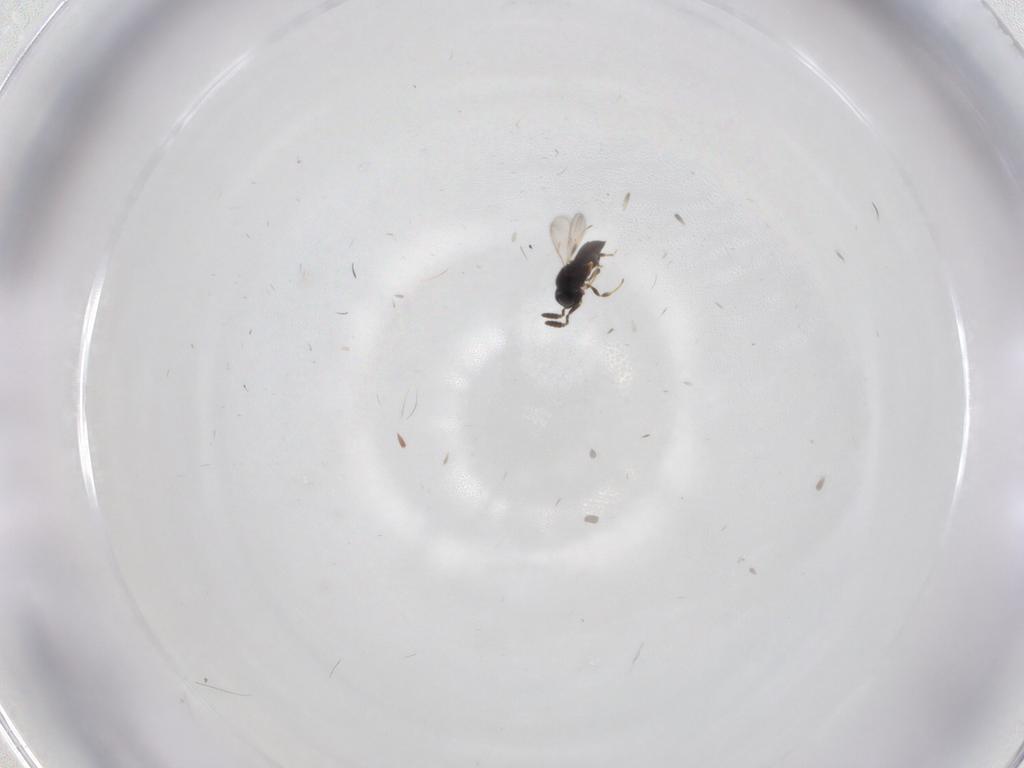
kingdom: Animalia
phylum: Arthropoda
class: Insecta
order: Hymenoptera
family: Scelionidae
